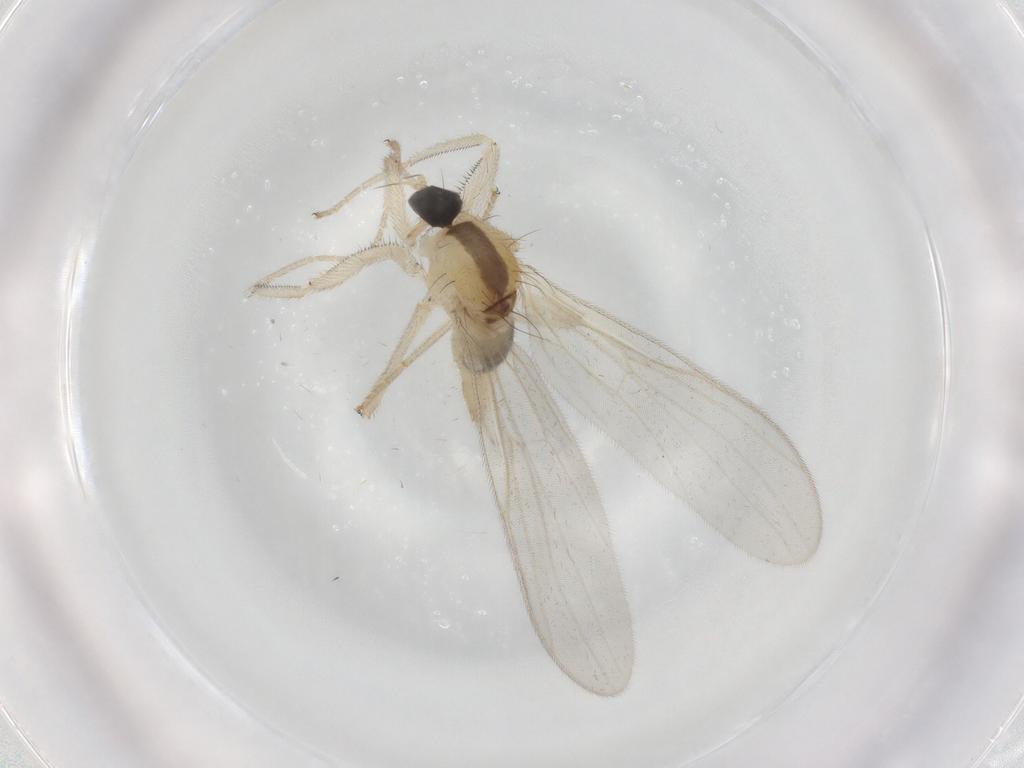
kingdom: Animalia
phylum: Arthropoda
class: Insecta
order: Diptera
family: Hybotidae
